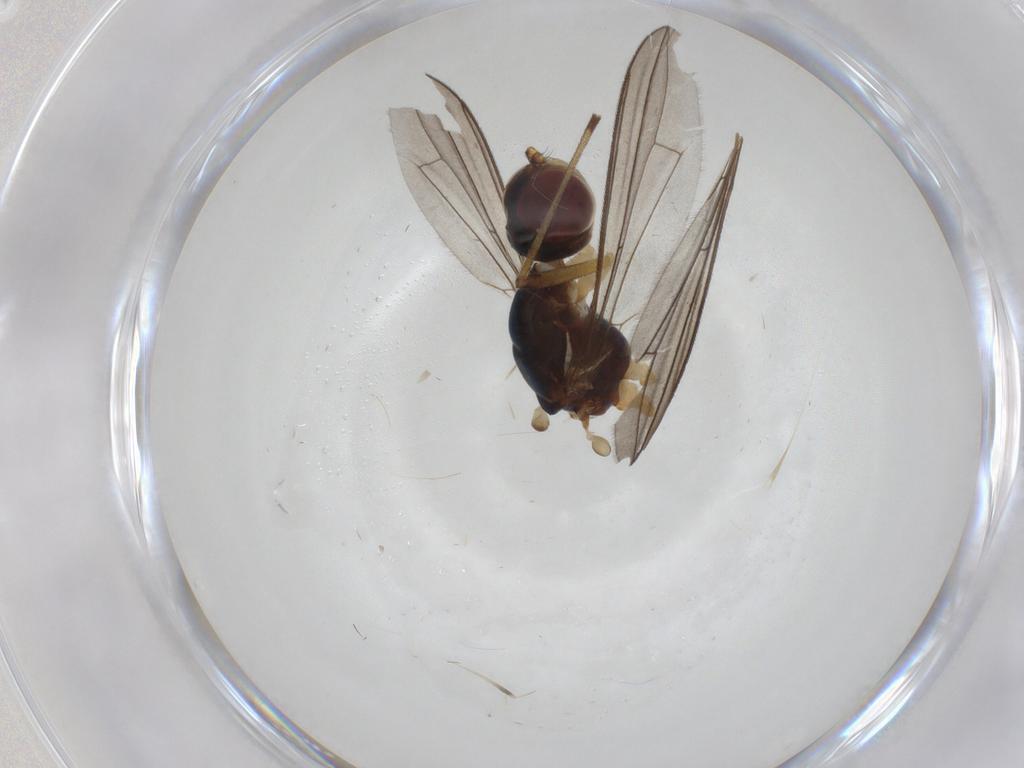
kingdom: Animalia
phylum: Arthropoda
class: Insecta
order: Diptera
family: Micropezidae
